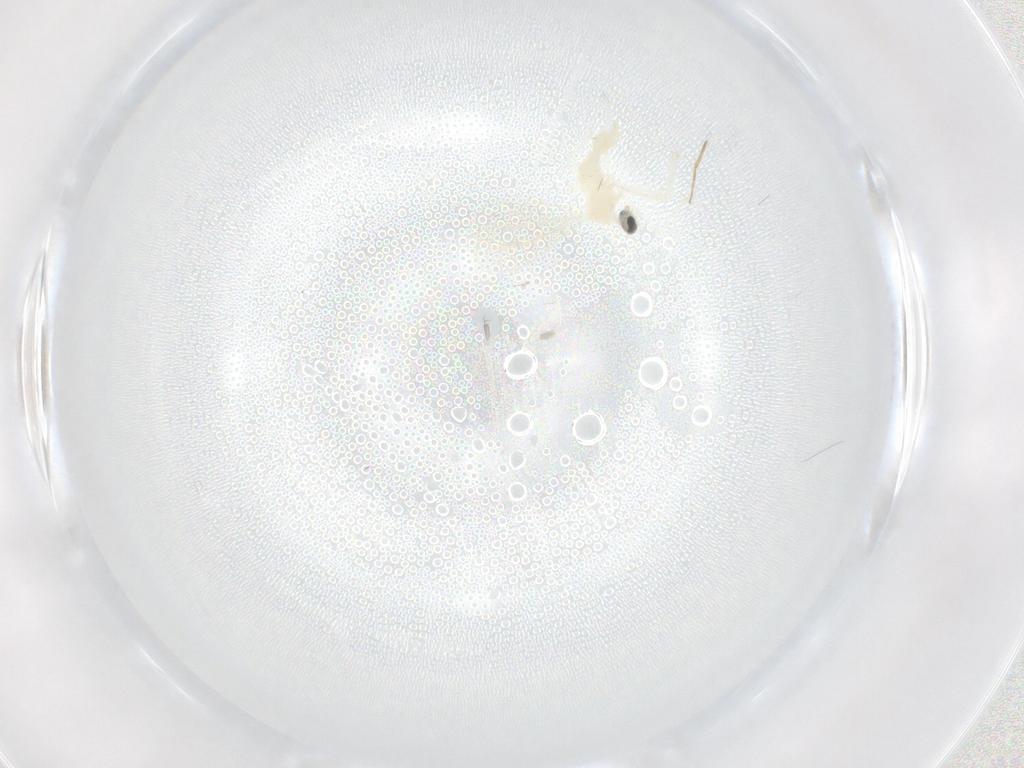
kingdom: Animalia
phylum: Arthropoda
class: Insecta
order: Diptera
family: Cecidomyiidae
